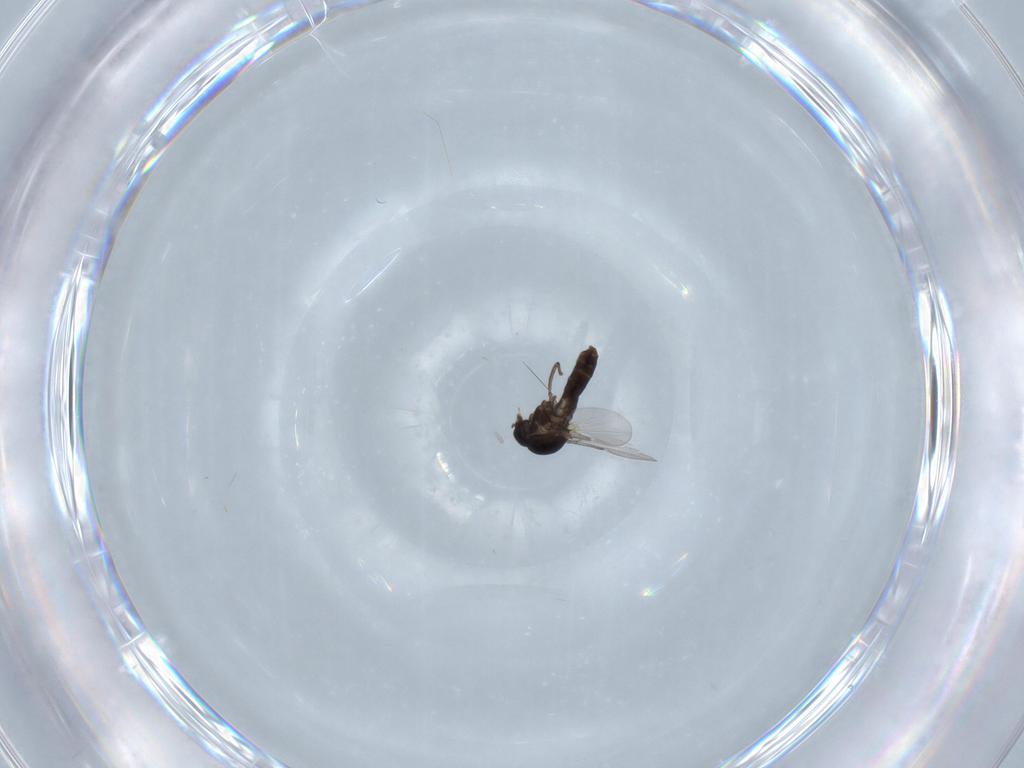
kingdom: Animalia
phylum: Arthropoda
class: Insecta
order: Diptera
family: Ceratopogonidae
